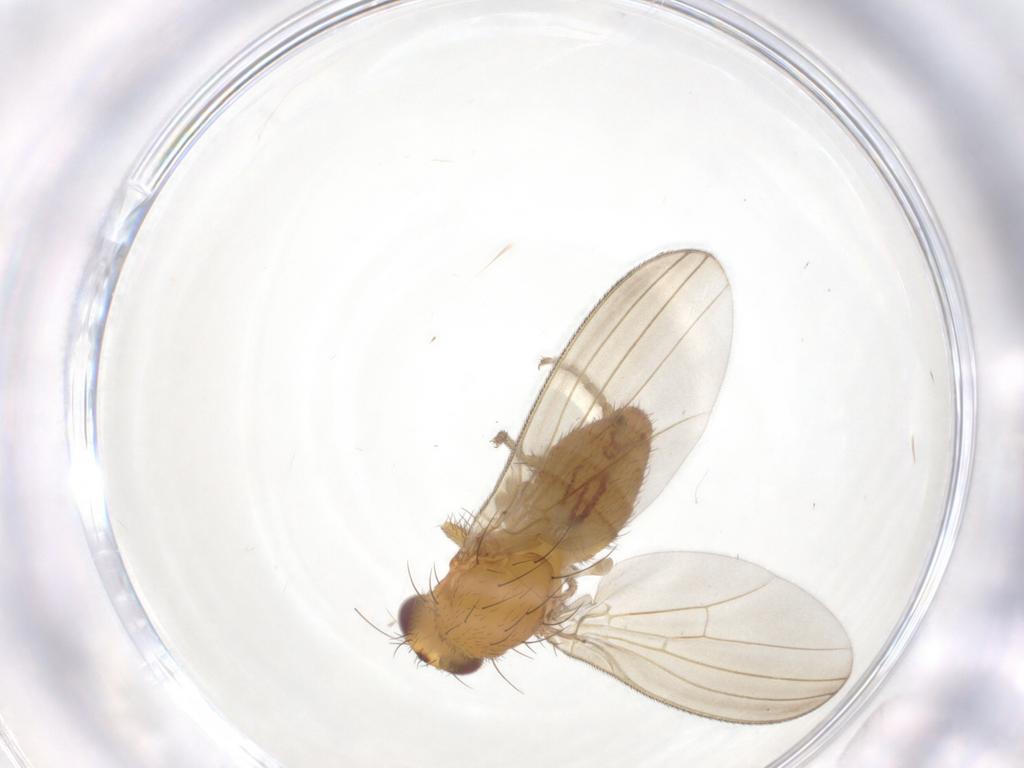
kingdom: Animalia
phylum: Arthropoda
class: Insecta
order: Diptera
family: Natalimyzidae
